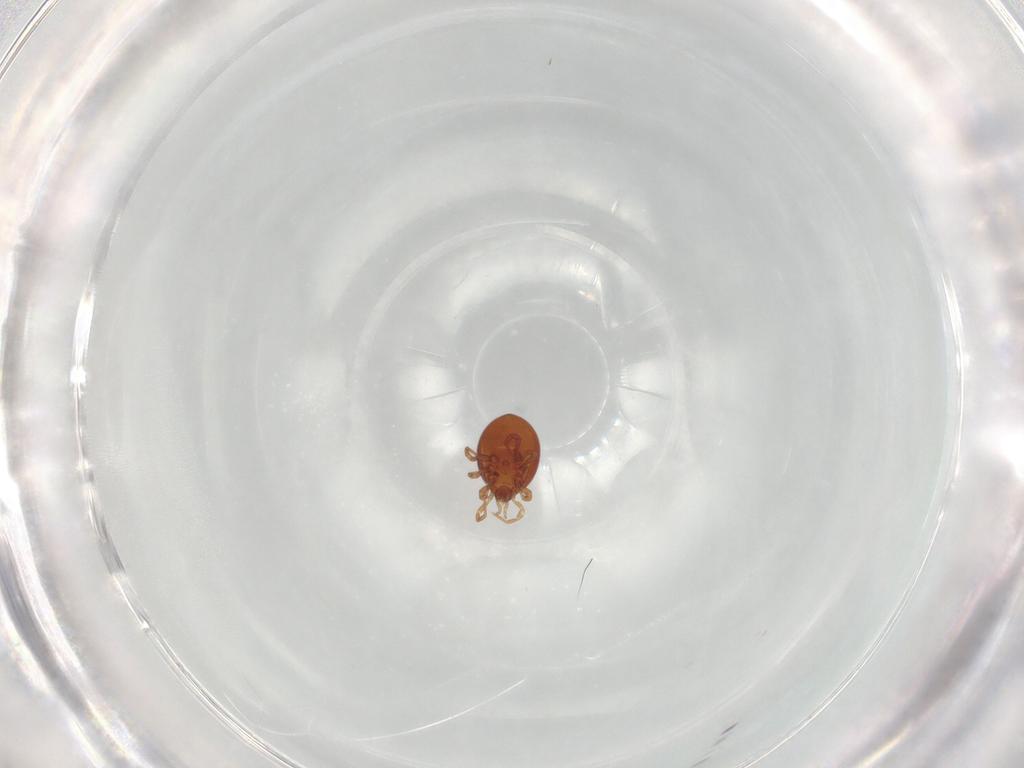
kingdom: Animalia
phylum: Arthropoda
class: Arachnida
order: Mesostigmata
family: Parasitidae
